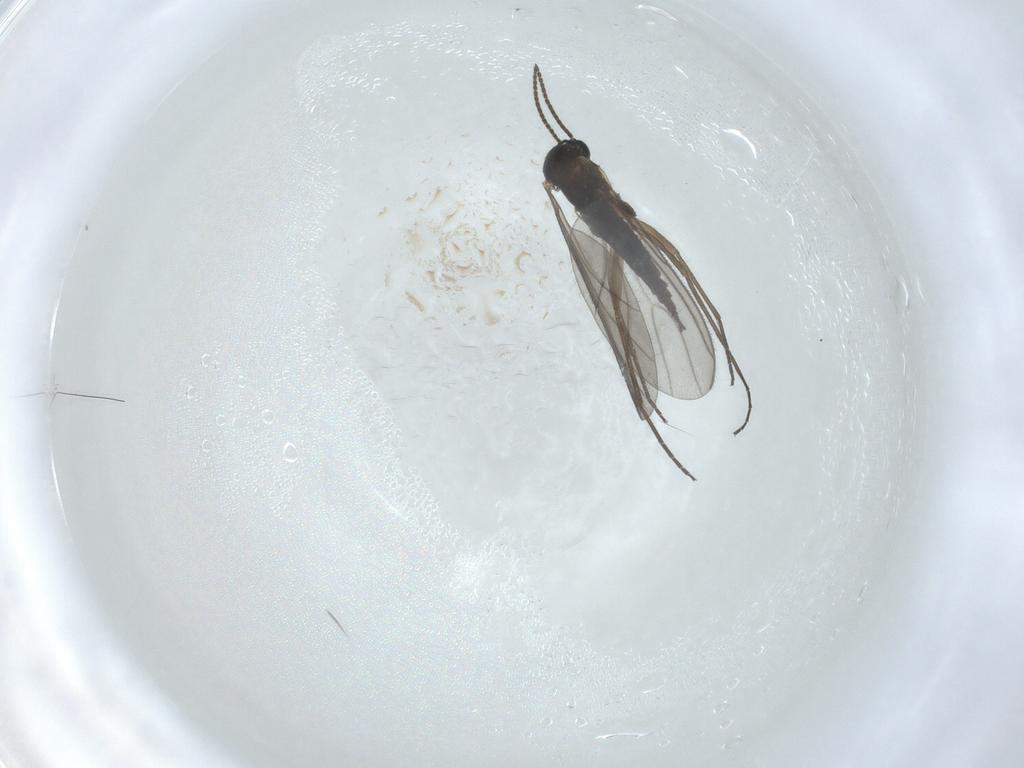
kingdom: Animalia
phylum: Arthropoda
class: Insecta
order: Diptera
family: Sciaridae
